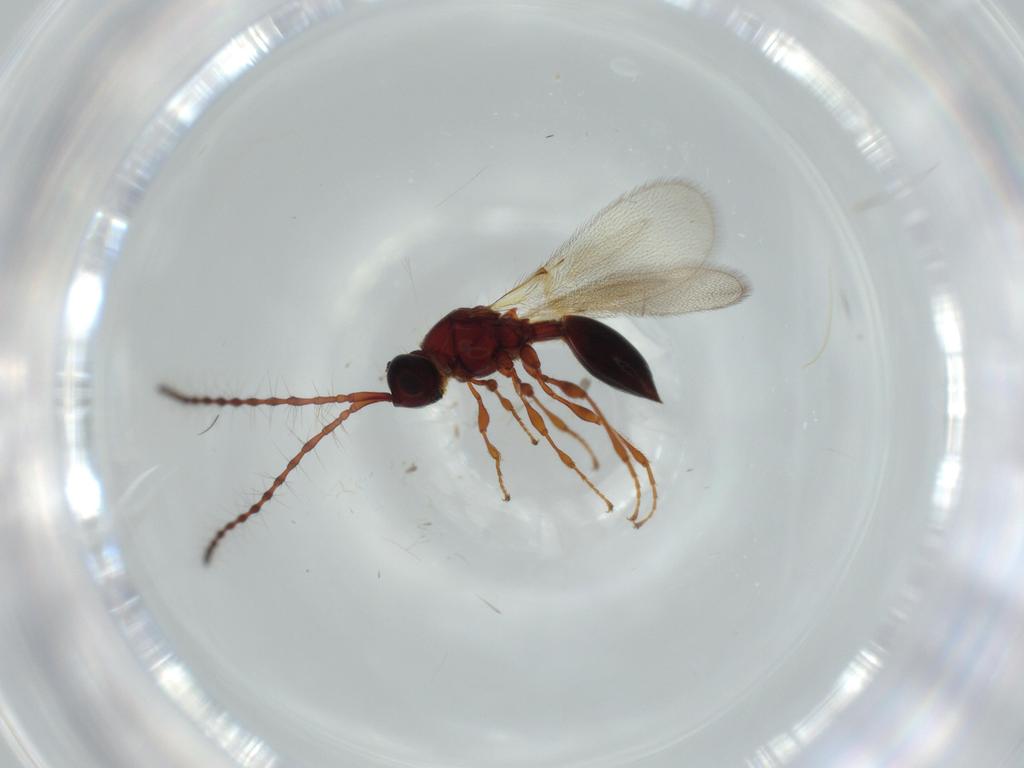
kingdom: Animalia
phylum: Arthropoda
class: Insecta
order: Hymenoptera
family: Diapriidae
